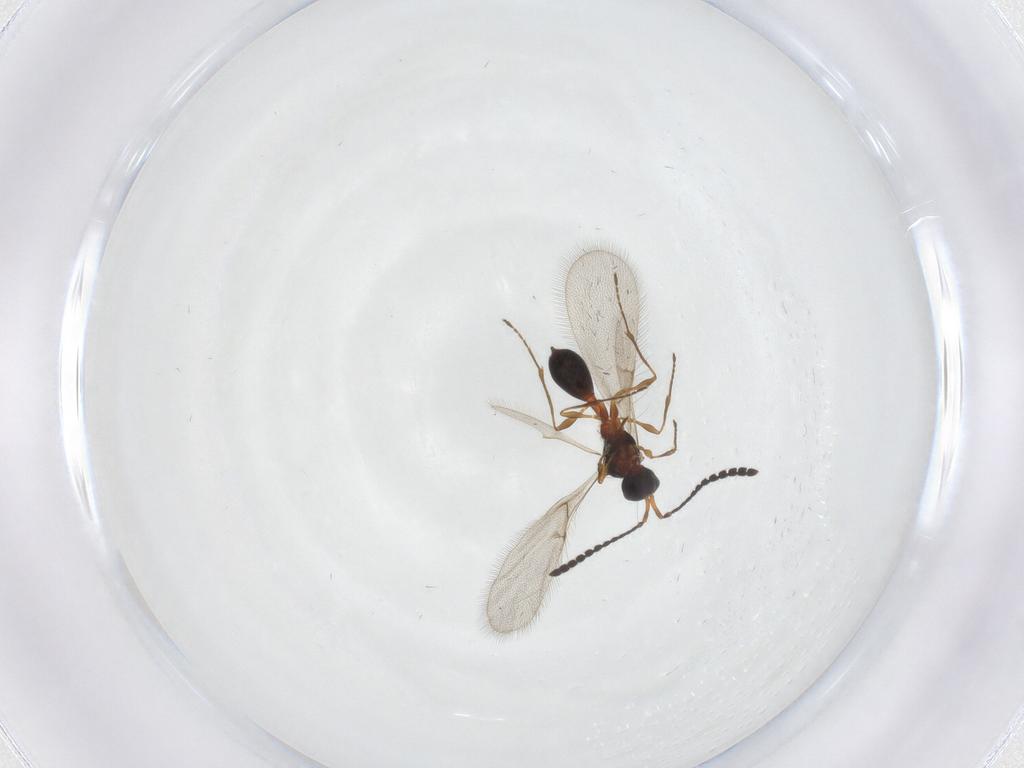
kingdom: Animalia
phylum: Arthropoda
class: Insecta
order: Hymenoptera
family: Diapriidae
